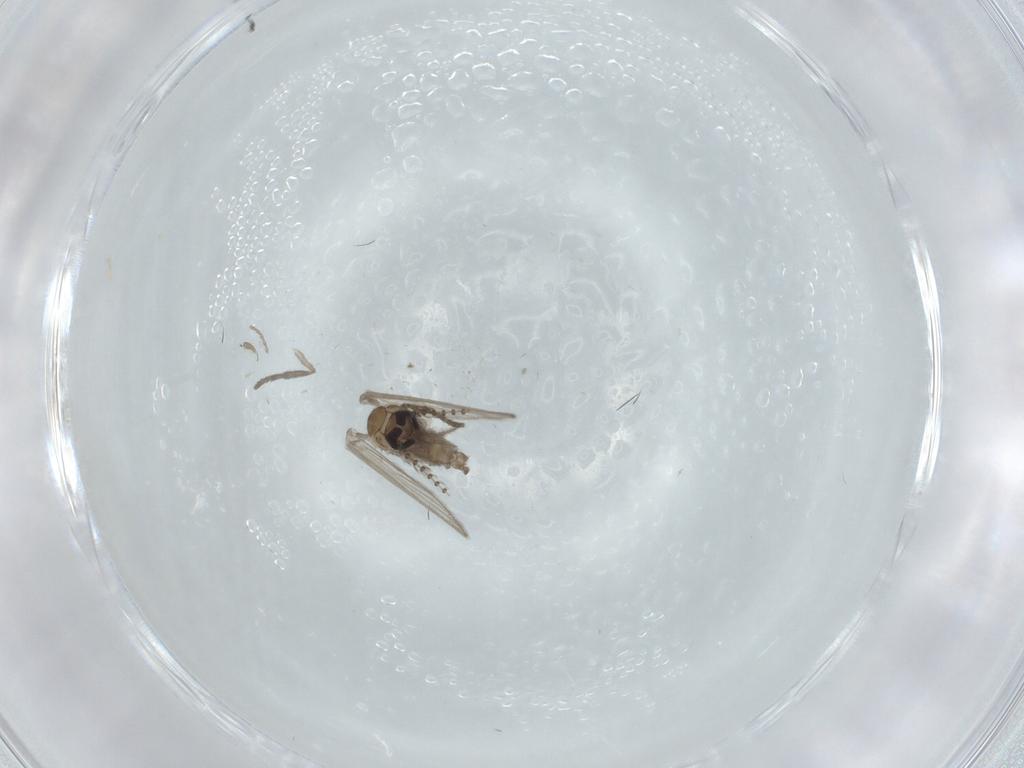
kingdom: Animalia
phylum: Arthropoda
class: Insecta
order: Diptera
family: Psychodidae
